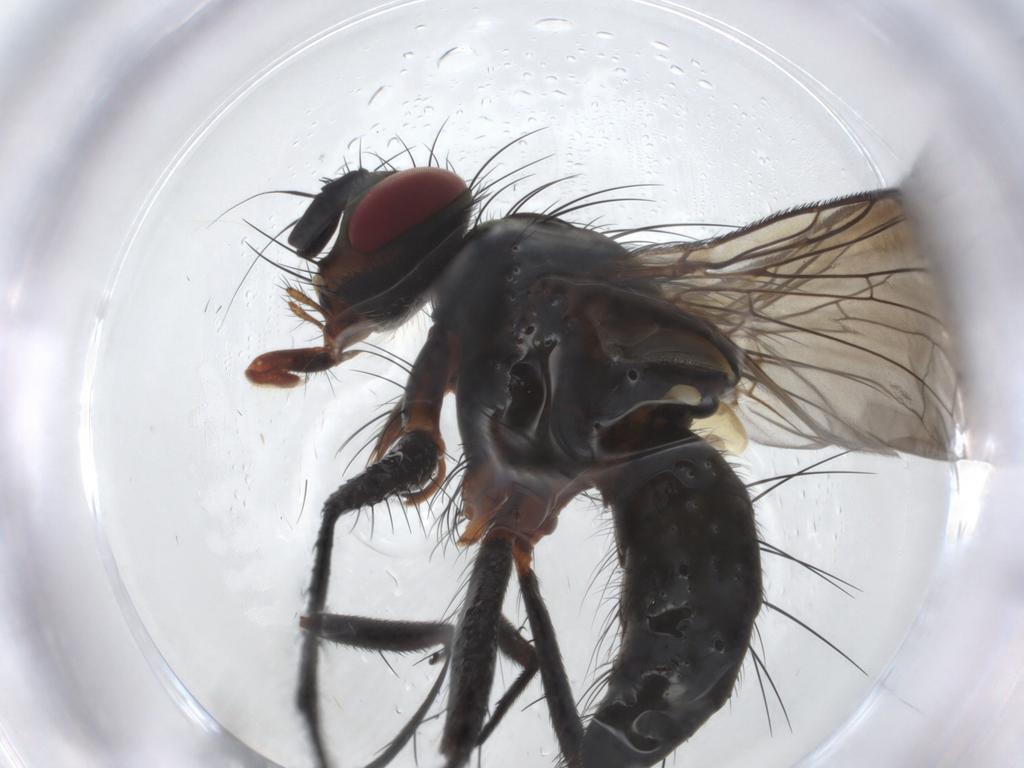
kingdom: Animalia
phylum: Arthropoda
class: Insecta
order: Diptera
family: Tachinidae
